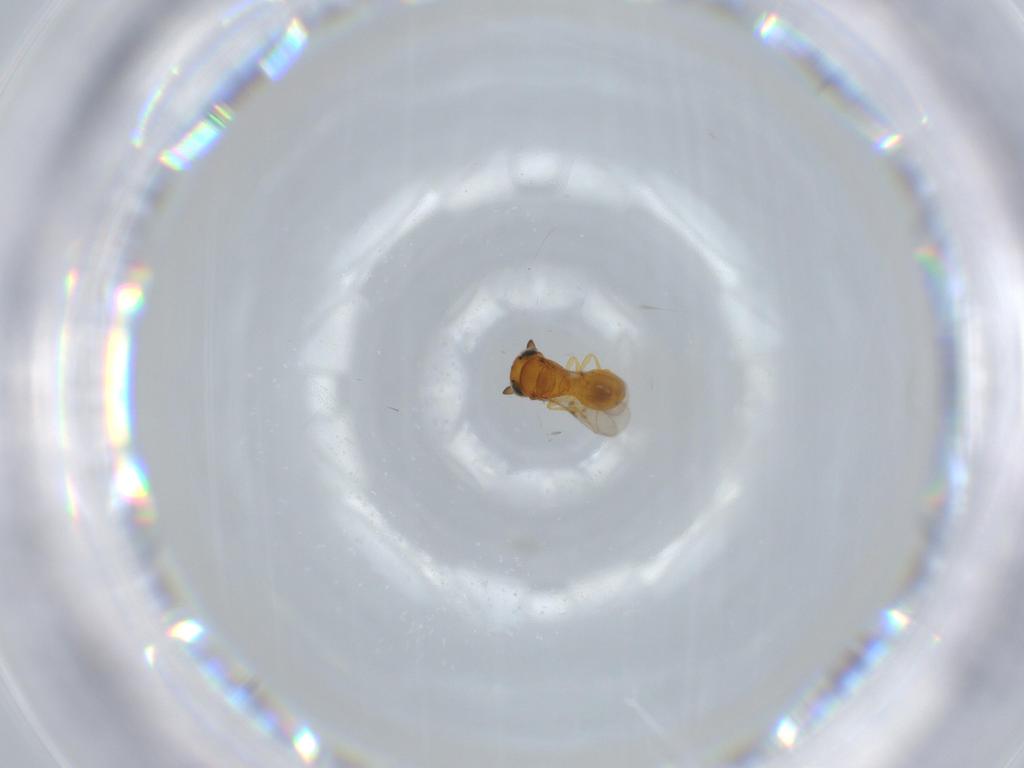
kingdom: Animalia
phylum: Arthropoda
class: Insecta
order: Hymenoptera
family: Scelionidae
